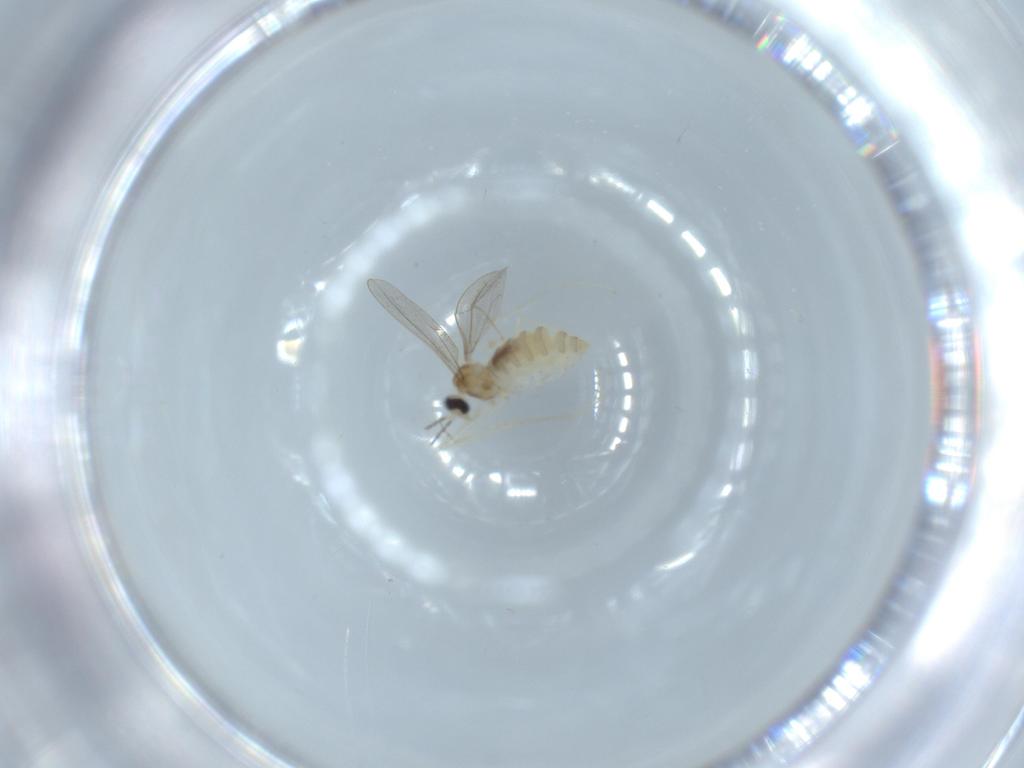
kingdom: Animalia
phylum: Arthropoda
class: Insecta
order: Diptera
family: Cecidomyiidae
